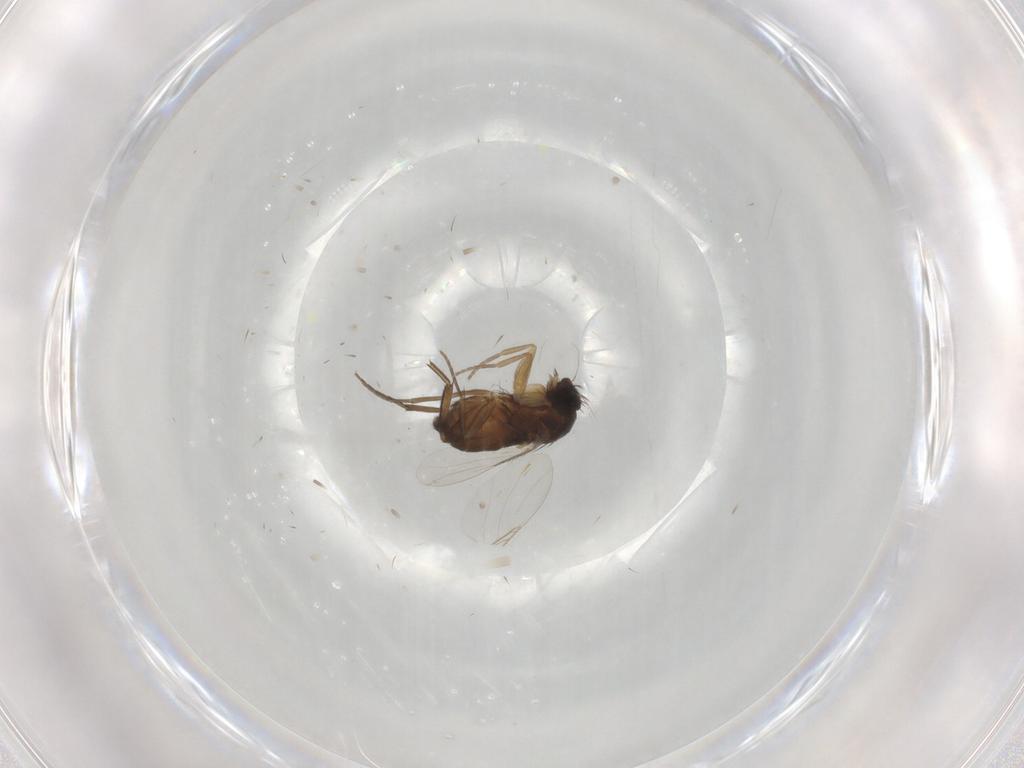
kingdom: Animalia
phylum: Arthropoda
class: Insecta
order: Diptera
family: Phoridae
